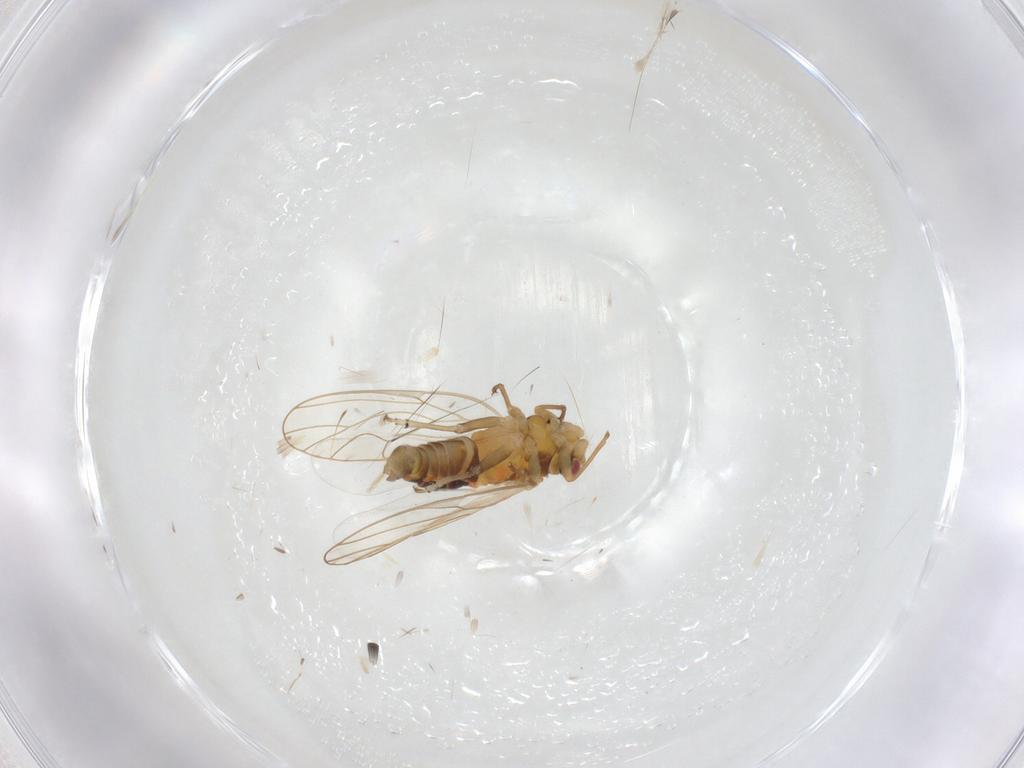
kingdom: Animalia
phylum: Arthropoda
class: Insecta
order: Hemiptera
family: Psyllidae
